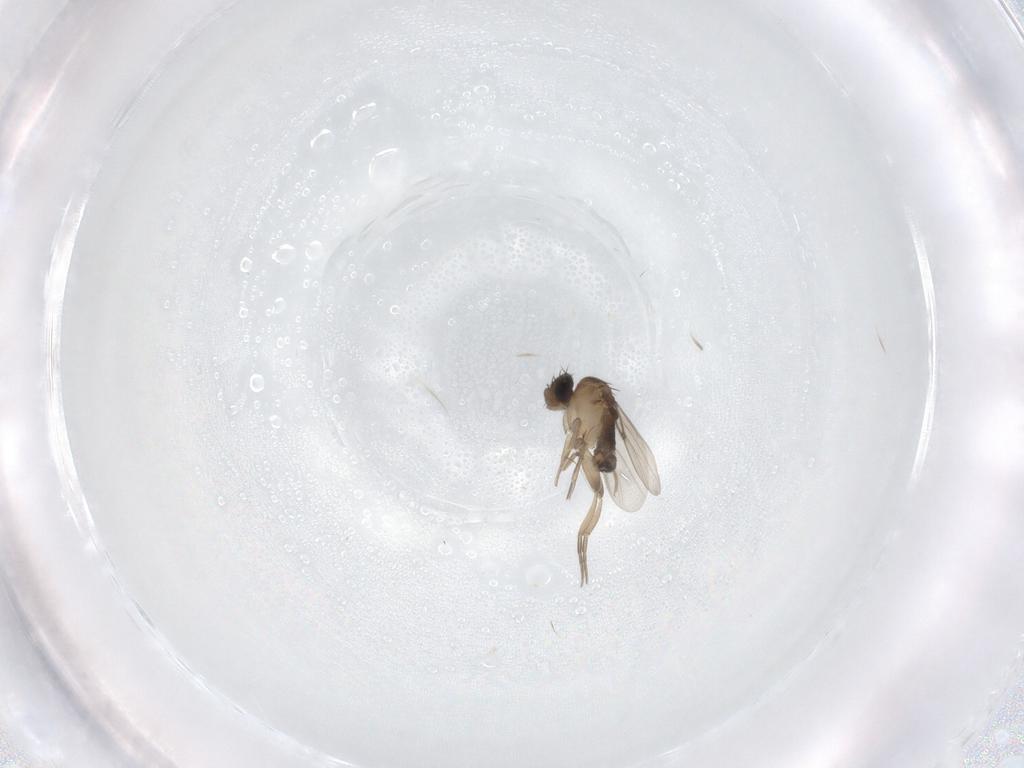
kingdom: Animalia
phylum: Arthropoda
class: Insecta
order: Diptera
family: Phoridae
